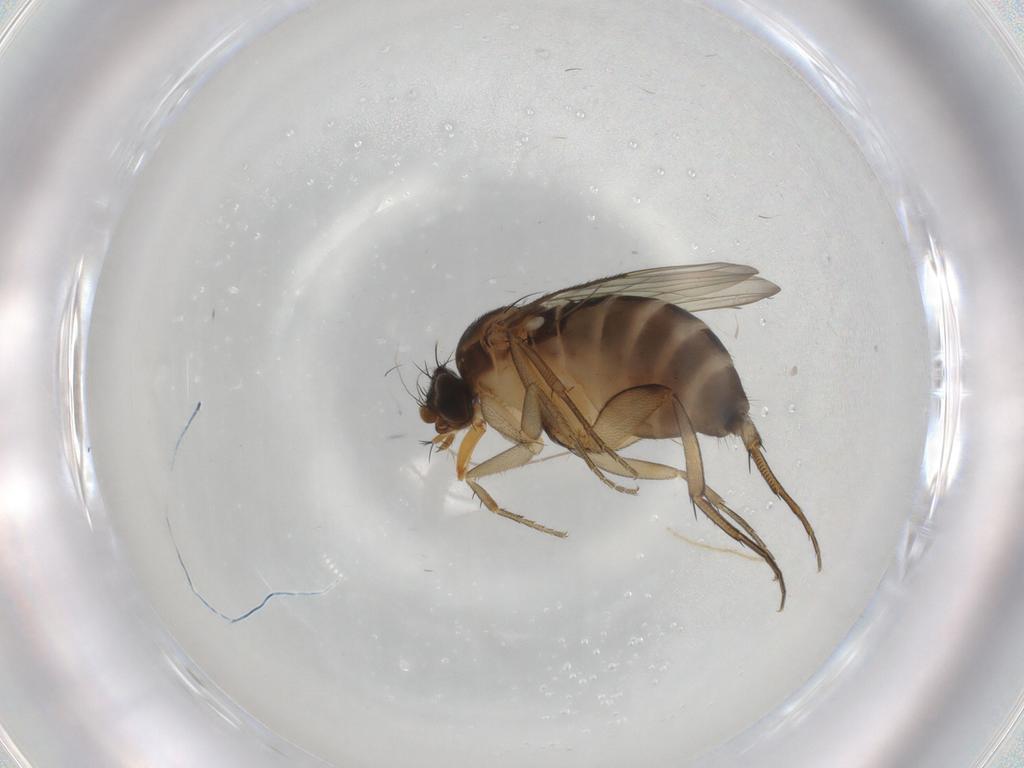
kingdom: Animalia
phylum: Arthropoda
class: Insecta
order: Diptera
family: Phoridae
